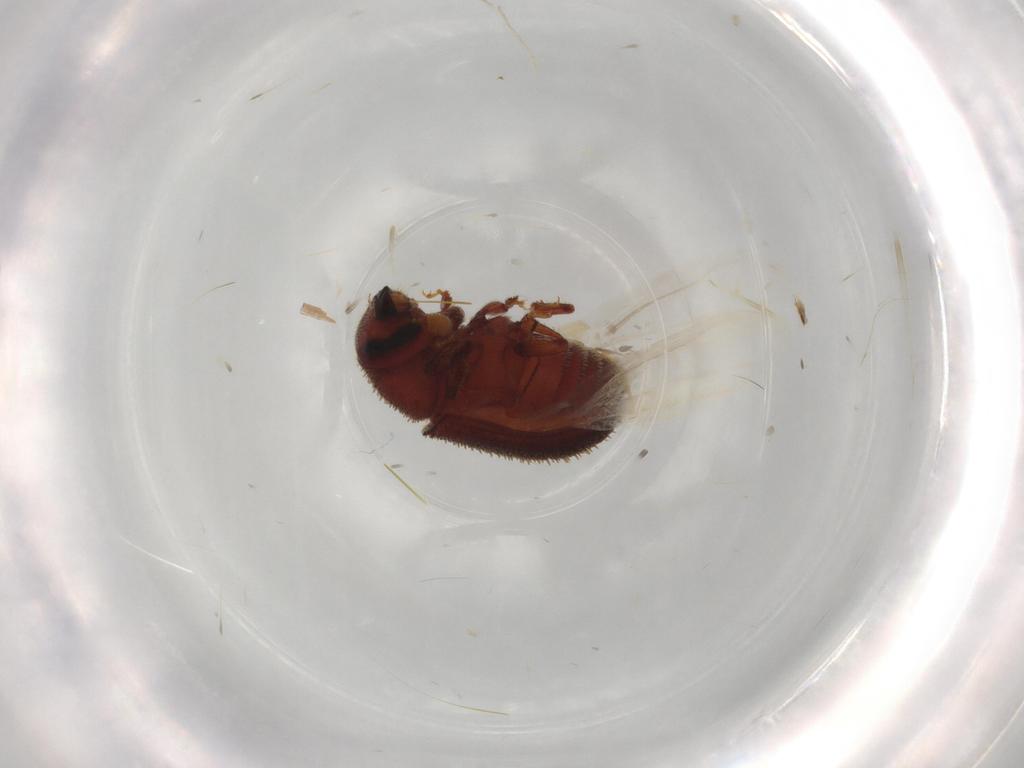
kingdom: Animalia
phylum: Arthropoda
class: Insecta
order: Coleoptera
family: Curculionidae
